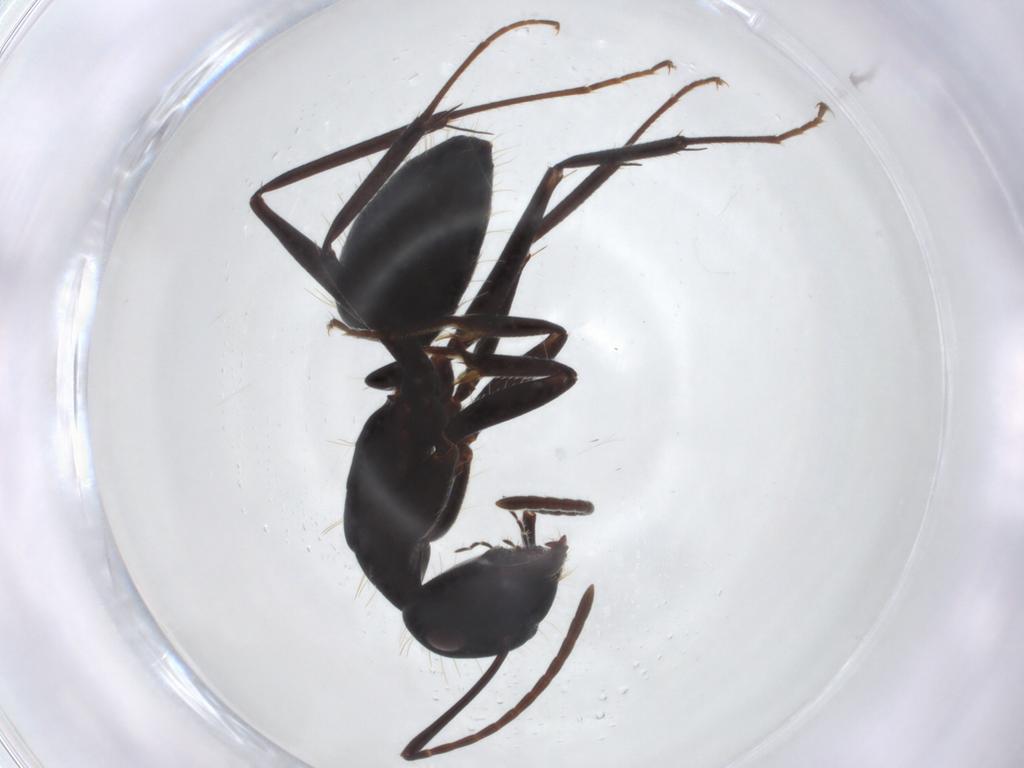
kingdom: Animalia
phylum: Arthropoda
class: Insecta
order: Hymenoptera
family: Formicidae
